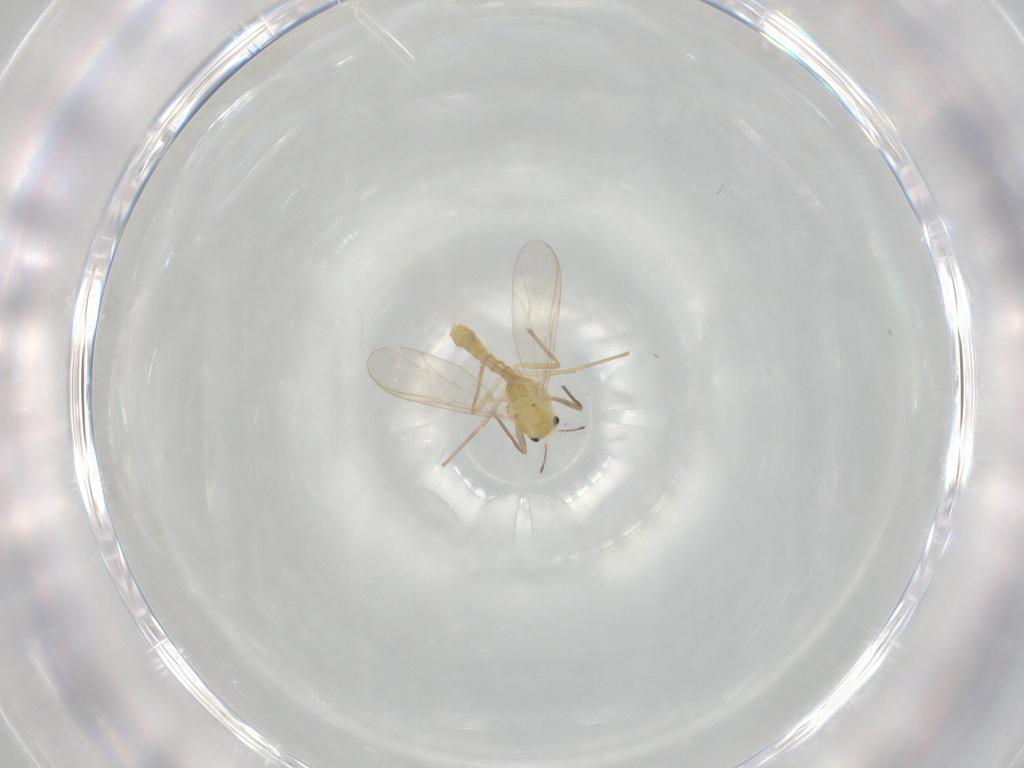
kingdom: Animalia
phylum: Arthropoda
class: Insecta
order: Diptera
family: Chironomidae
